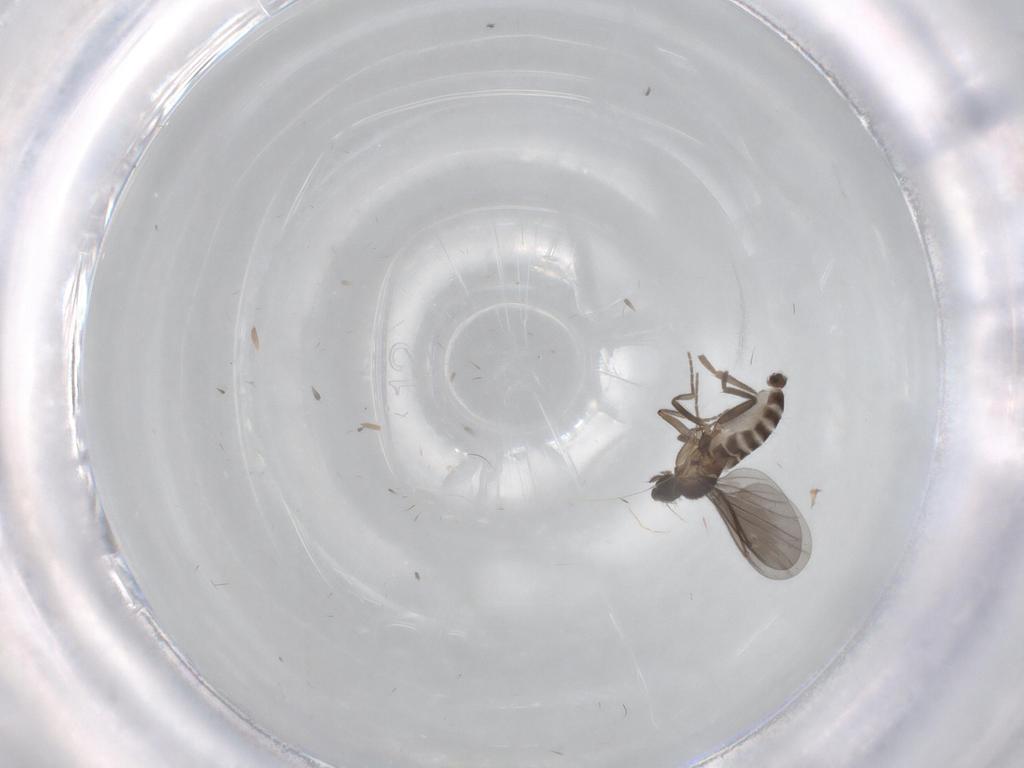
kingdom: Animalia
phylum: Arthropoda
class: Insecta
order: Diptera
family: Phoridae
